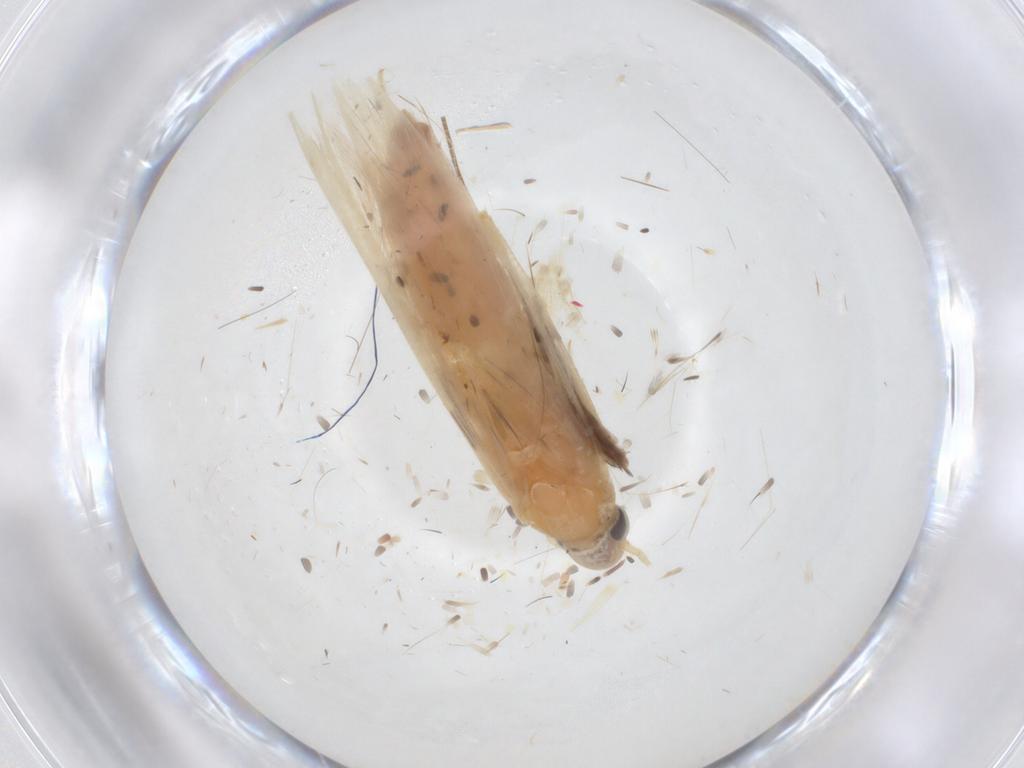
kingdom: Animalia
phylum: Arthropoda
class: Insecta
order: Lepidoptera
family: Batrachedridae
